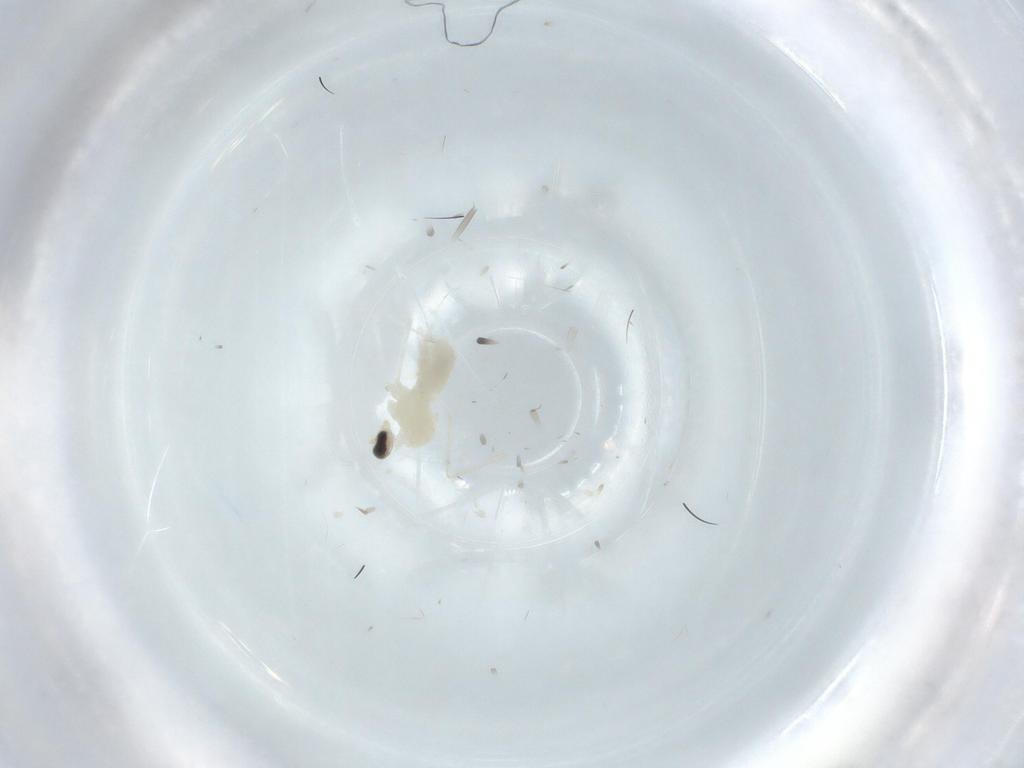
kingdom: Animalia
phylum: Arthropoda
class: Insecta
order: Diptera
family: Cecidomyiidae
